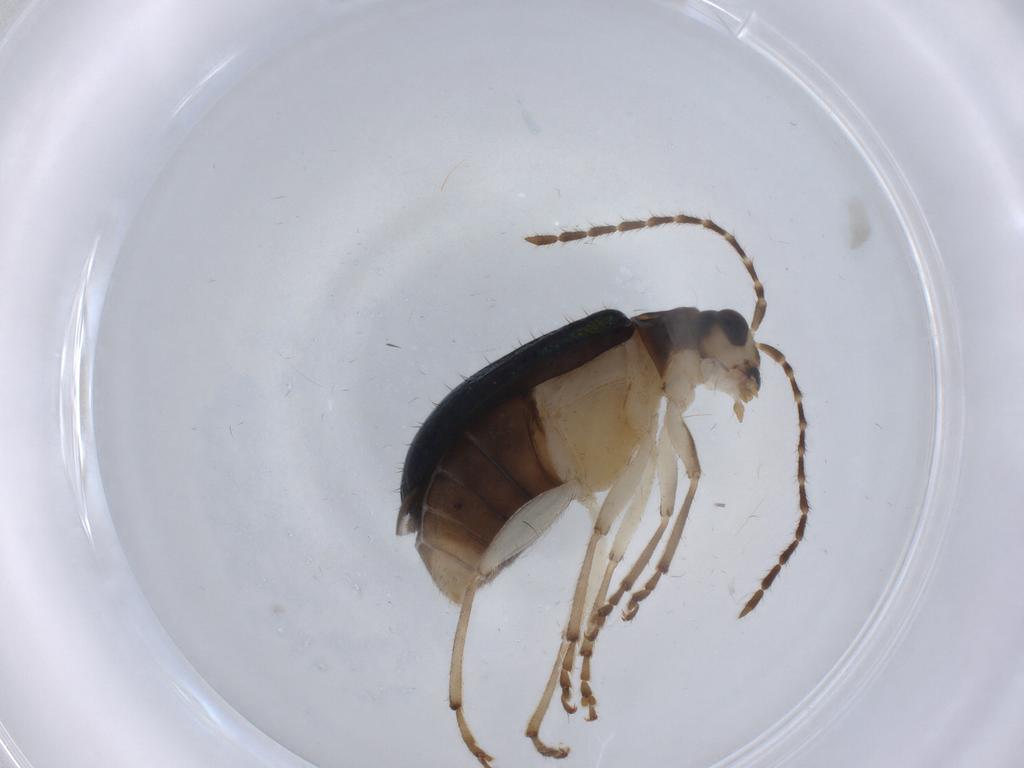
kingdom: Animalia
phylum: Arthropoda
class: Insecta
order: Coleoptera
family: Chrysomelidae
